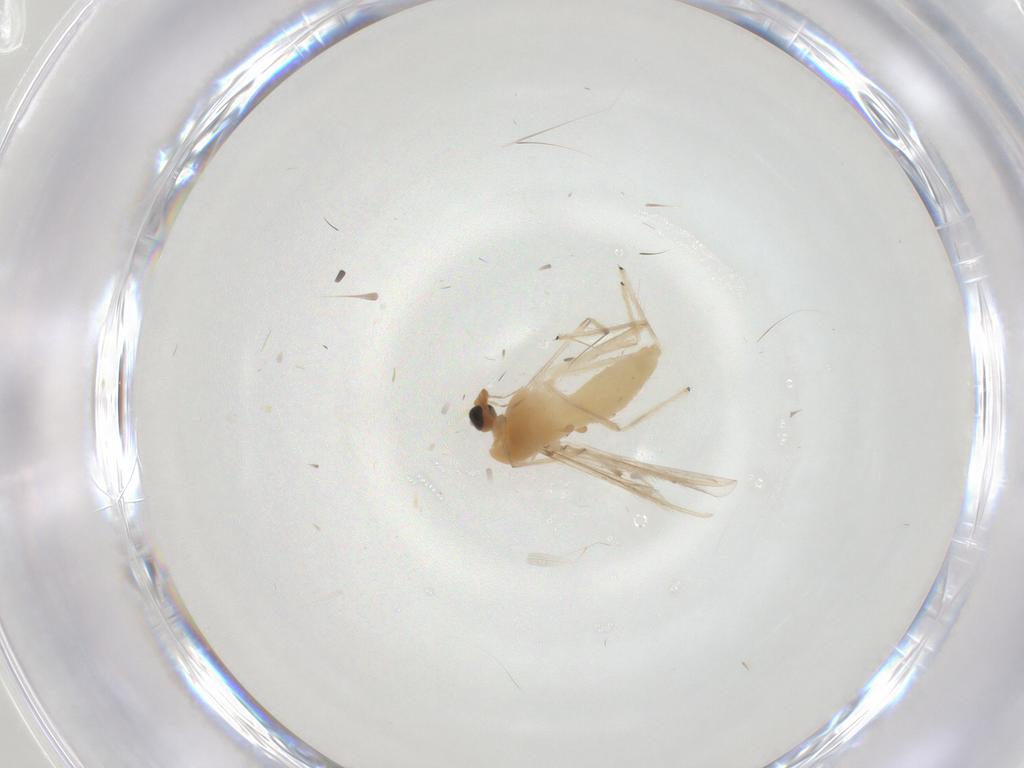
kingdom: Animalia
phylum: Arthropoda
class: Insecta
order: Diptera
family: Chironomidae
